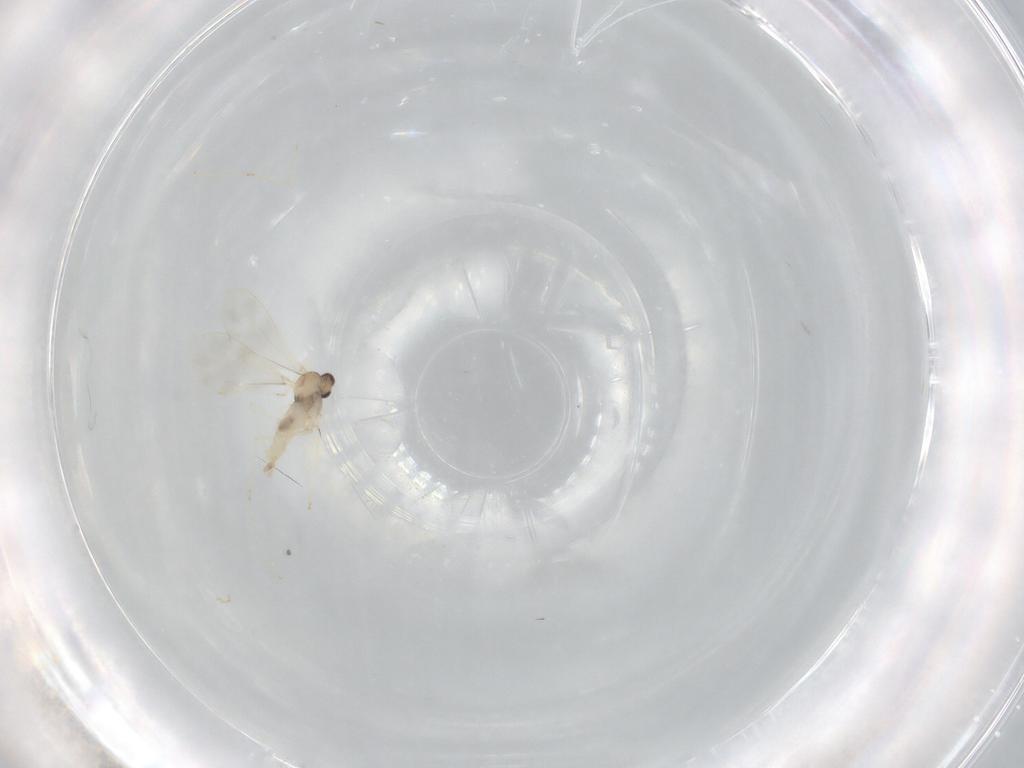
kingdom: Animalia
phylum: Arthropoda
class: Insecta
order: Diptera
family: Cecidomyiidae
